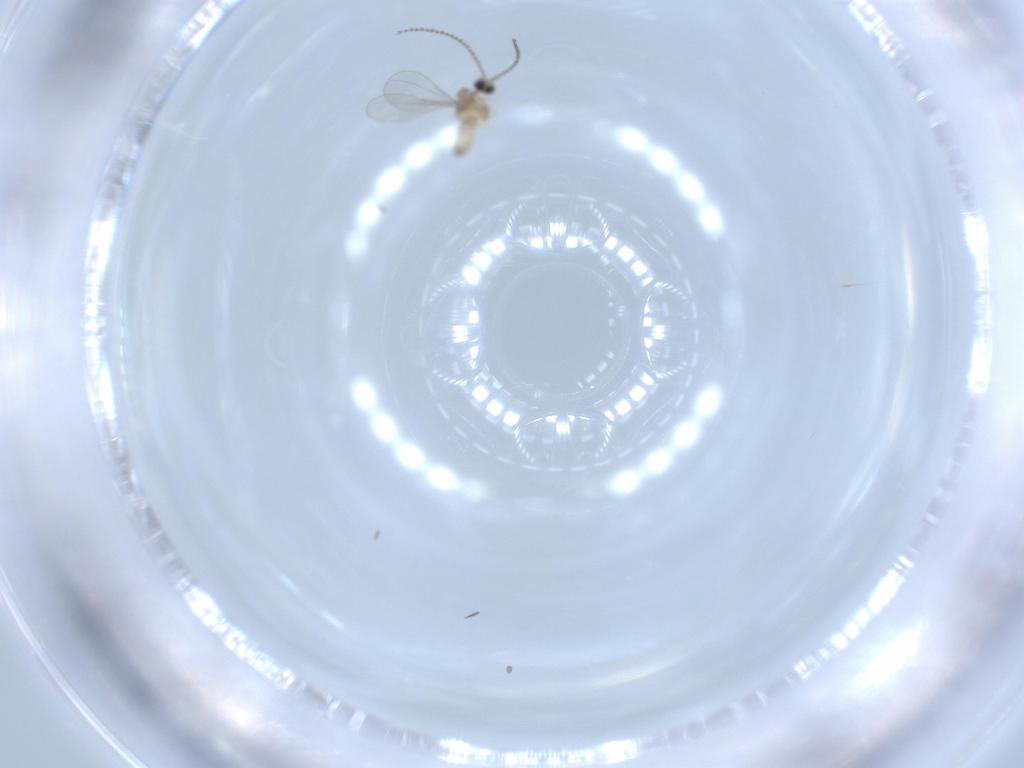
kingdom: Animalia
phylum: Arthropoda
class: Insecta
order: Diptera
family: Cecidomyiidae
